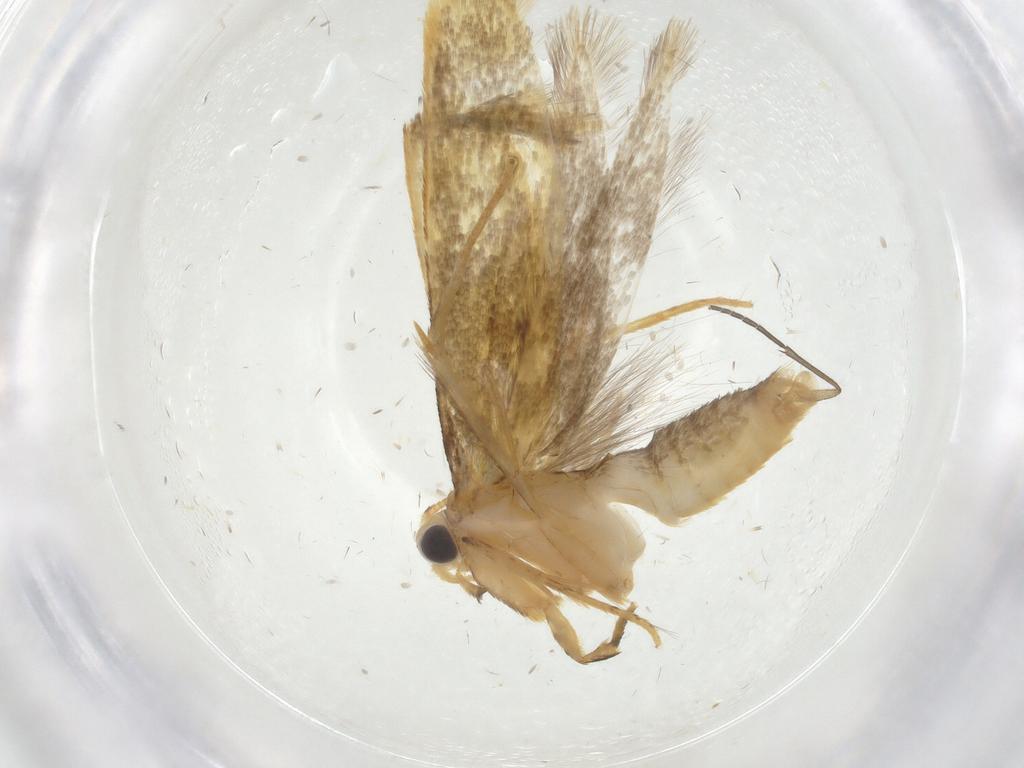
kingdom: Animalia
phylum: Arthropoda
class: Insecta
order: Lepidoptera
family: Tineidae
